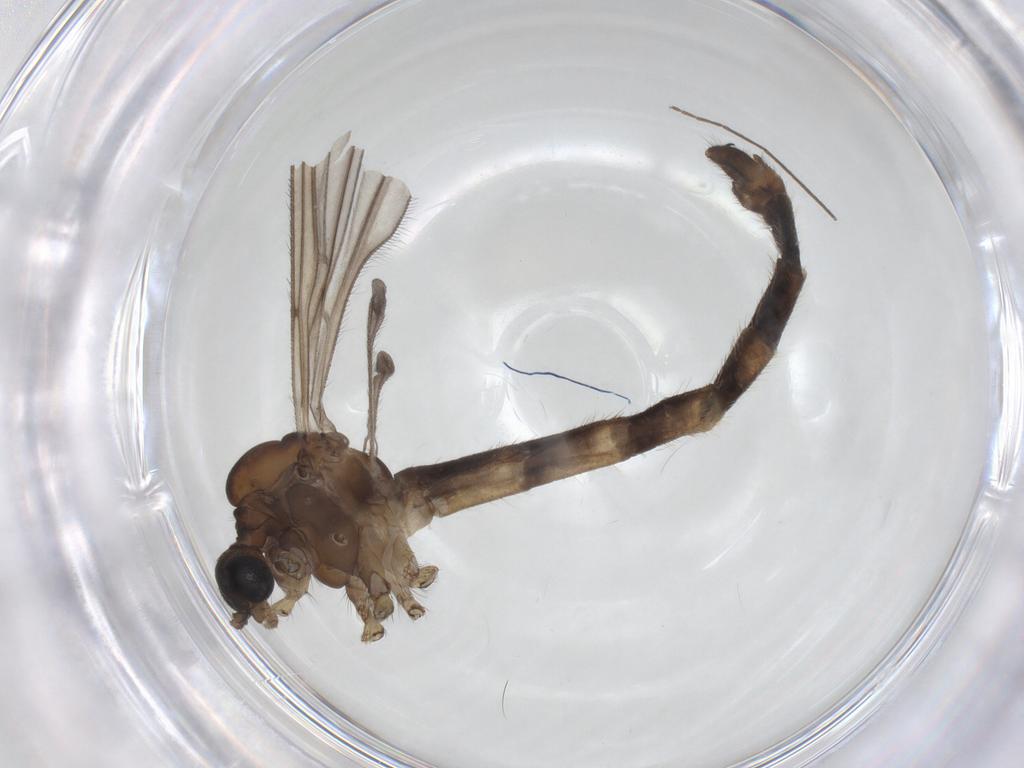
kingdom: Animalia
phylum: Arthropoda
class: Insecta
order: Diptera
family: Chironomidae
